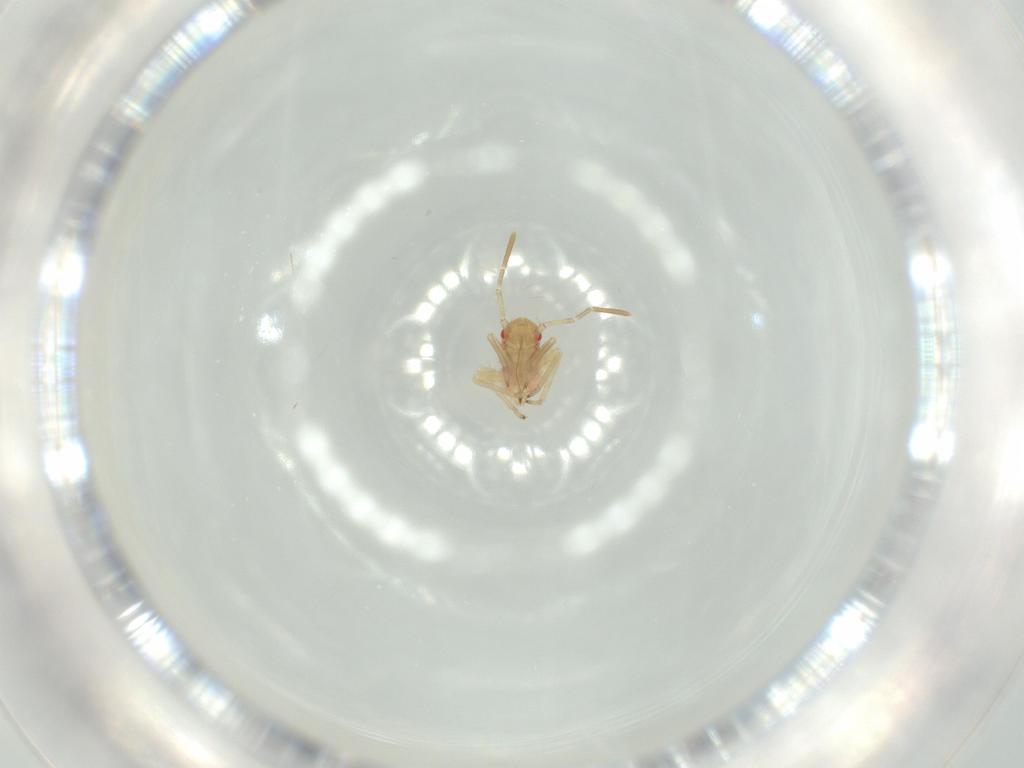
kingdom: Animalia
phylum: Arthropoda
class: Insecta
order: Hemiptera
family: Miridae
